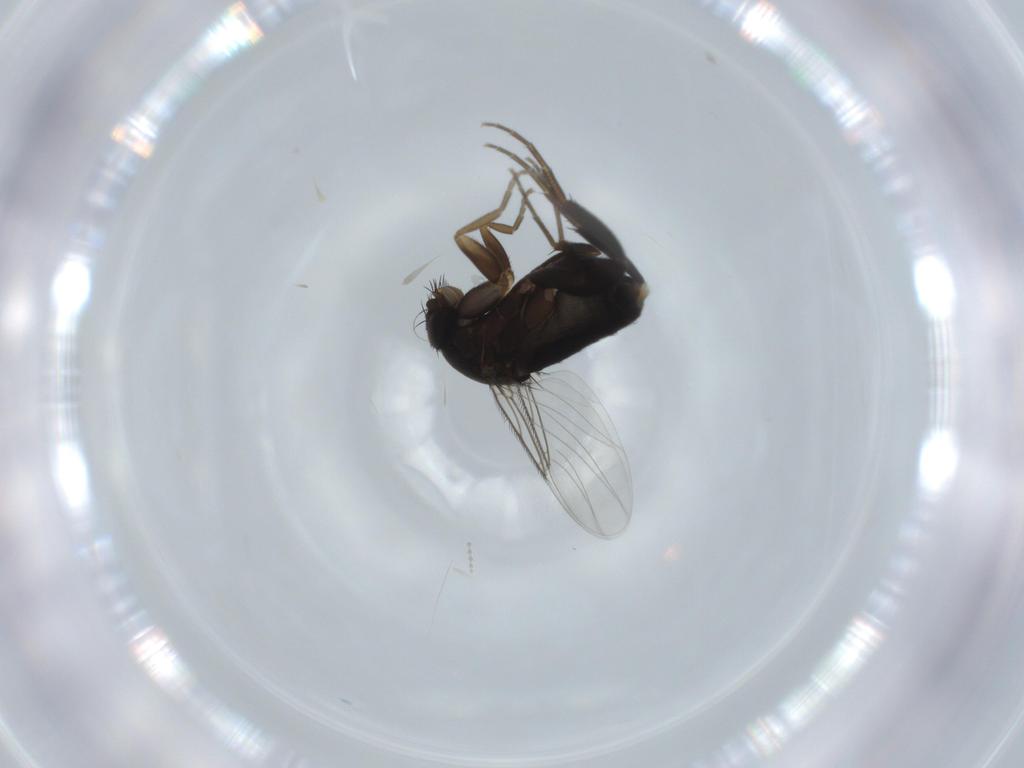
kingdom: Animalia
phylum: Arthropoda
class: Insecta
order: Diptera
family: Phoridae
